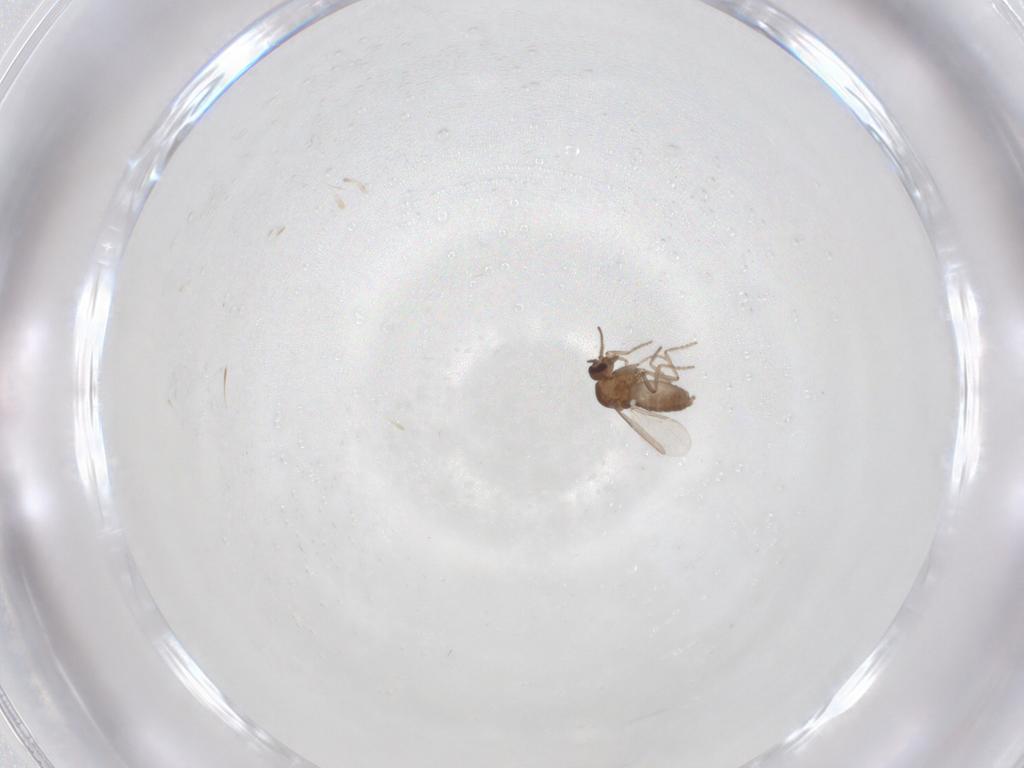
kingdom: Animalia
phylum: Arthropoda
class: Insecta
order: Diptera
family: Ceratopogonidae
